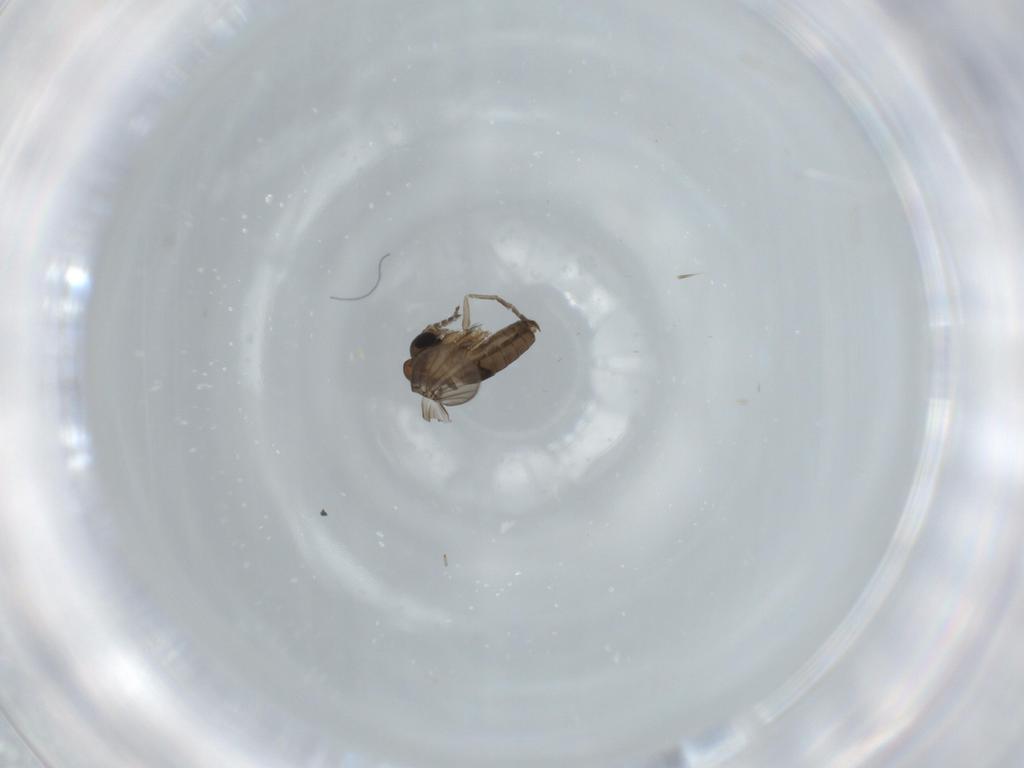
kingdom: Animalia
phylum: Arthropoda
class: Insecta
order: Diptera
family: Psychodidae
